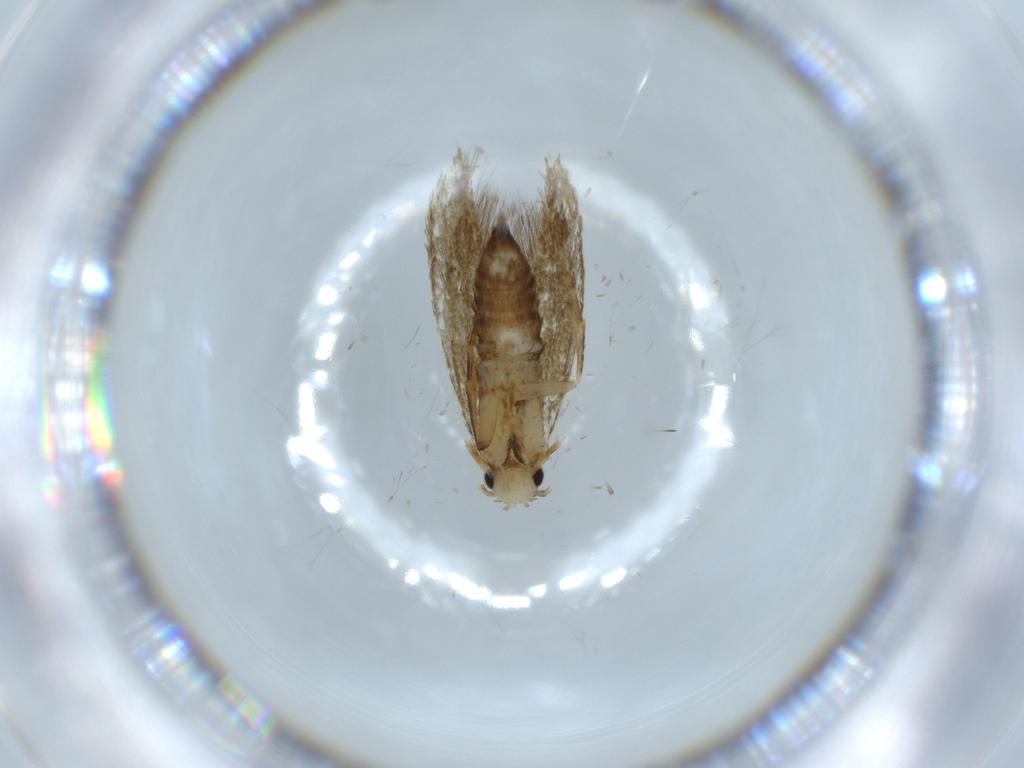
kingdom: Animalia
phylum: Arthropoda
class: Insecta
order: Lepidoptera
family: Tineidae
